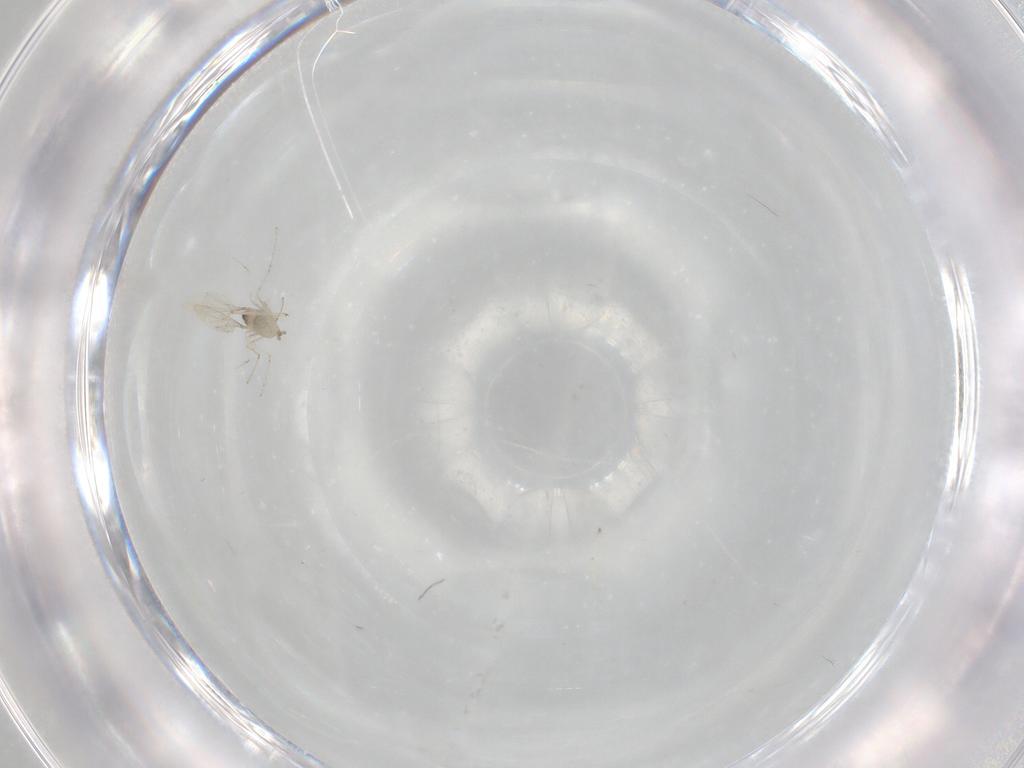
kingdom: Animalia
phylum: Arthropoda
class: Insecta
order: Diptera
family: Cecidomyiidae
